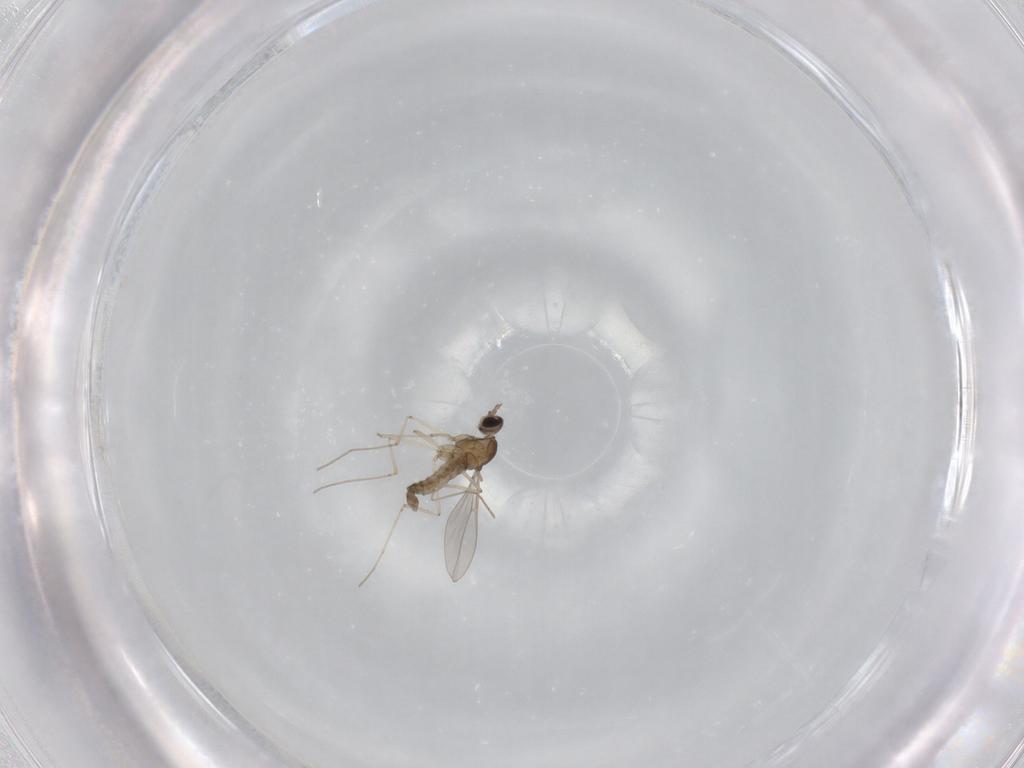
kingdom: Animalia
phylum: Arthropoda
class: Insecta
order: Diptera
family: Cecidomyiidae
